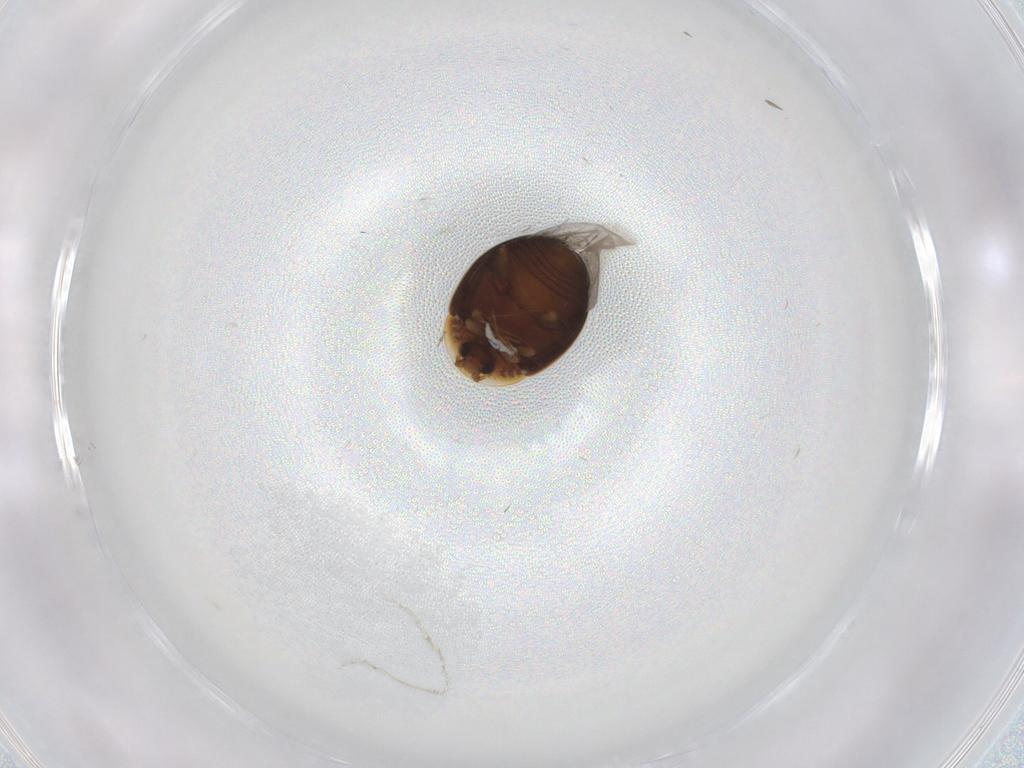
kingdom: Animalia
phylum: Arthropoda
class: Insecta
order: Coleoptera
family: Corylophidae
